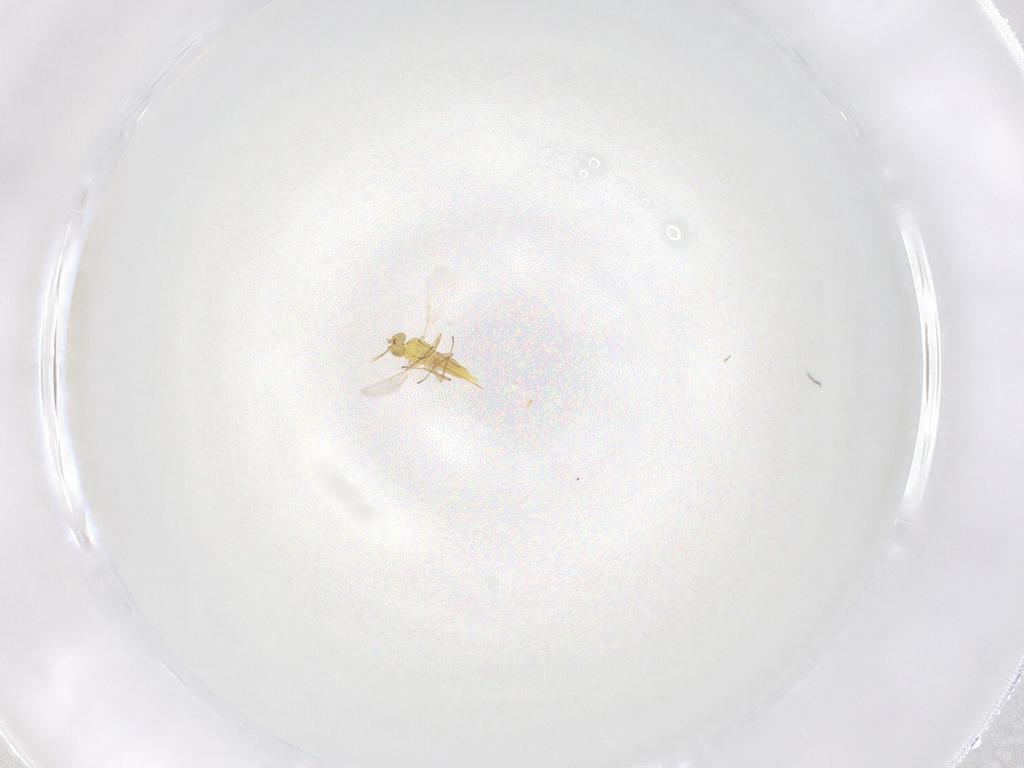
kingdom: Animalia
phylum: Arthropoda
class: Insecta
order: Hymenoptera
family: Aphelinidae
